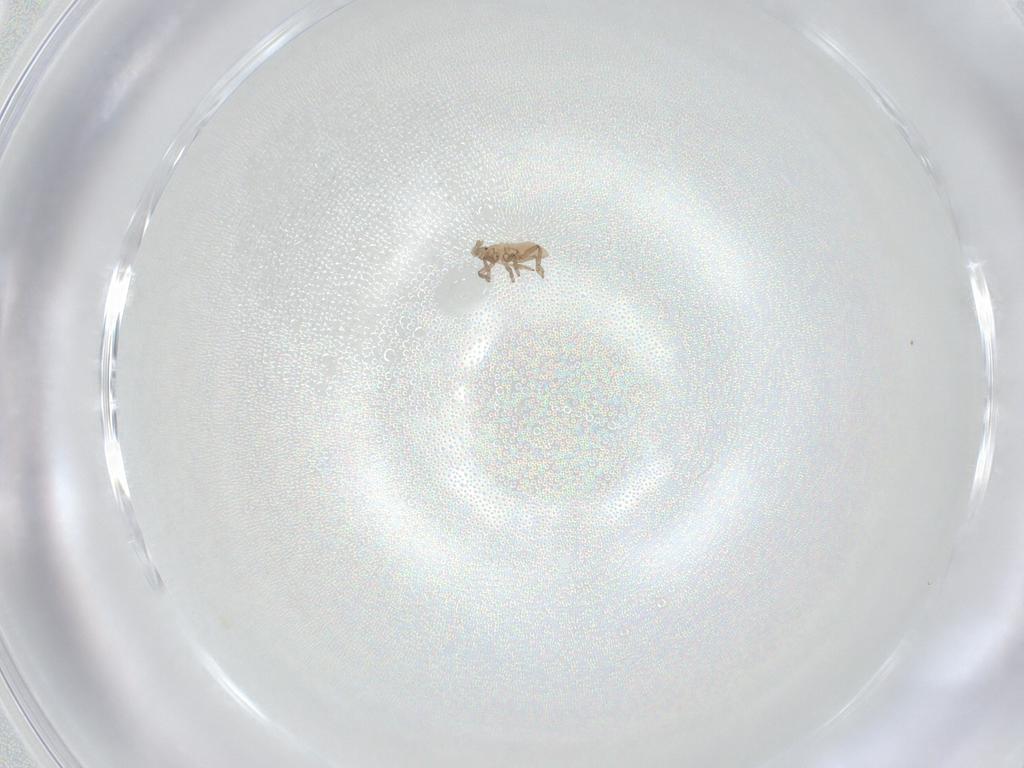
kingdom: Animalia
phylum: Arthropoda
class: Insecta
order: Hemiptera
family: Aphididae
